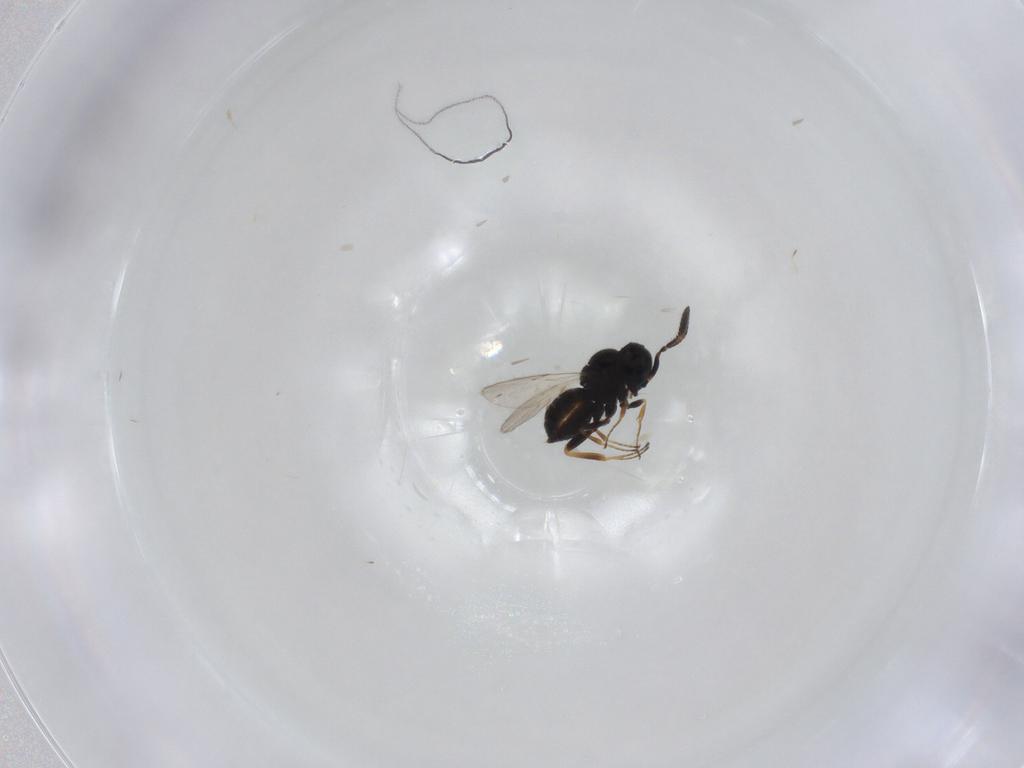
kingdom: Animalia
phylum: Arthropoda
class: Insecta
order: Hymenoptera
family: Scelionidae
